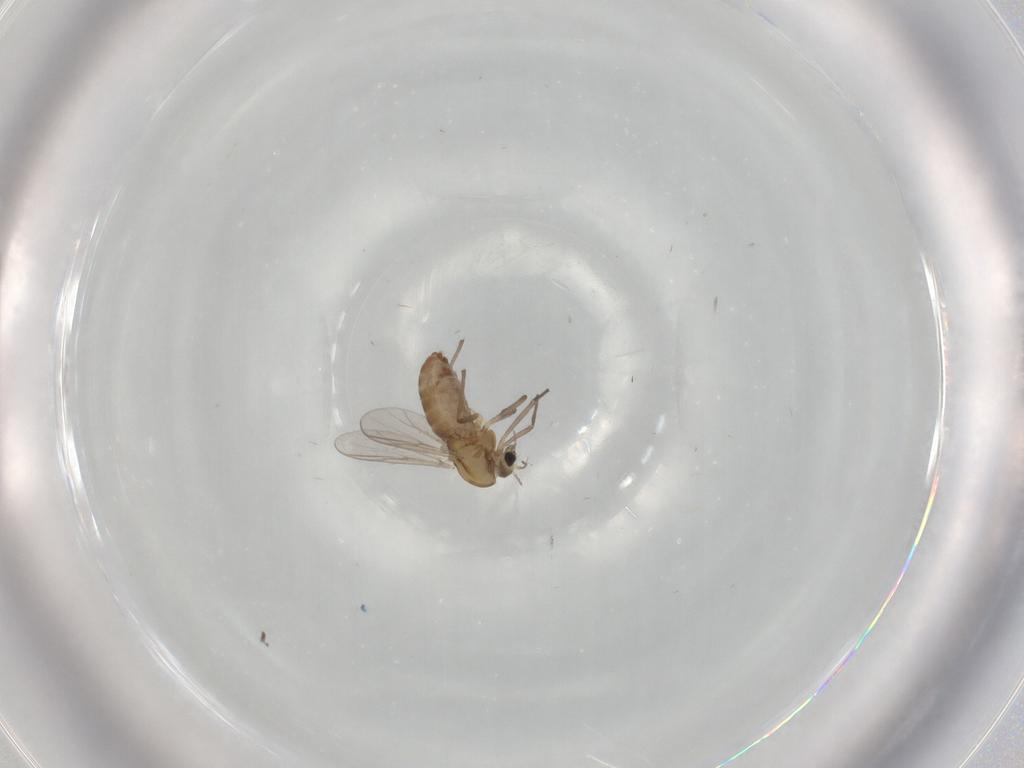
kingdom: Animalia
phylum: Arthropoda
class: Insecta
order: Diptera
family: Chironomidae
